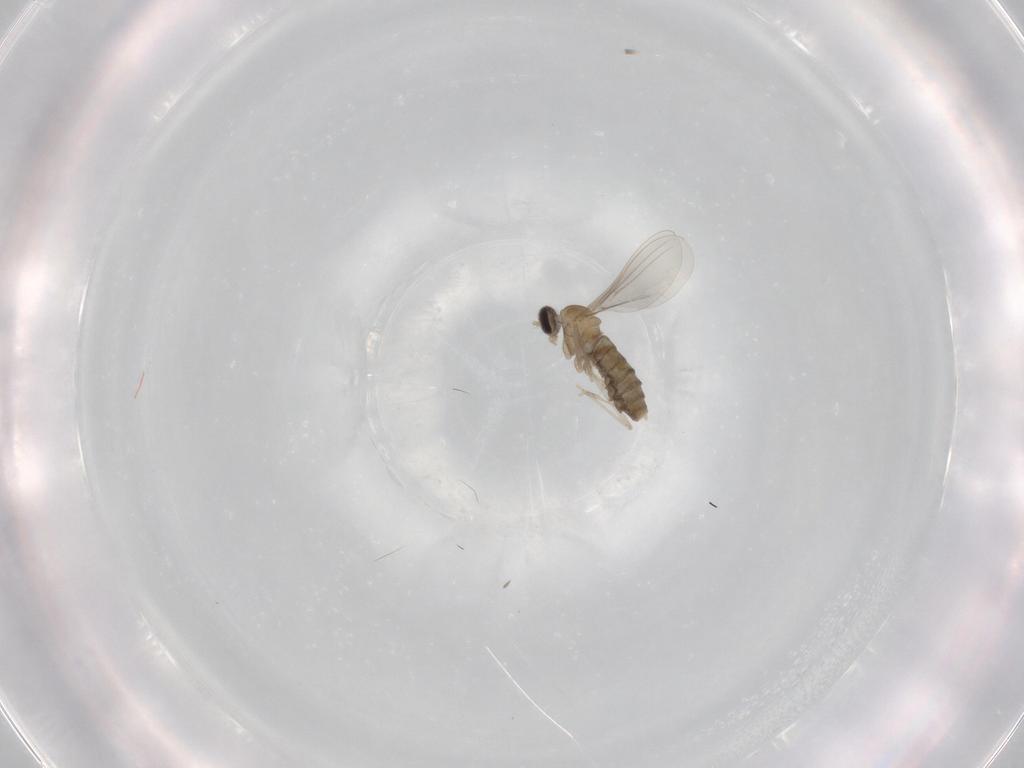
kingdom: Animalia
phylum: Arthropoda
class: Insecta
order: Diptera
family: Cecidomyiidae
